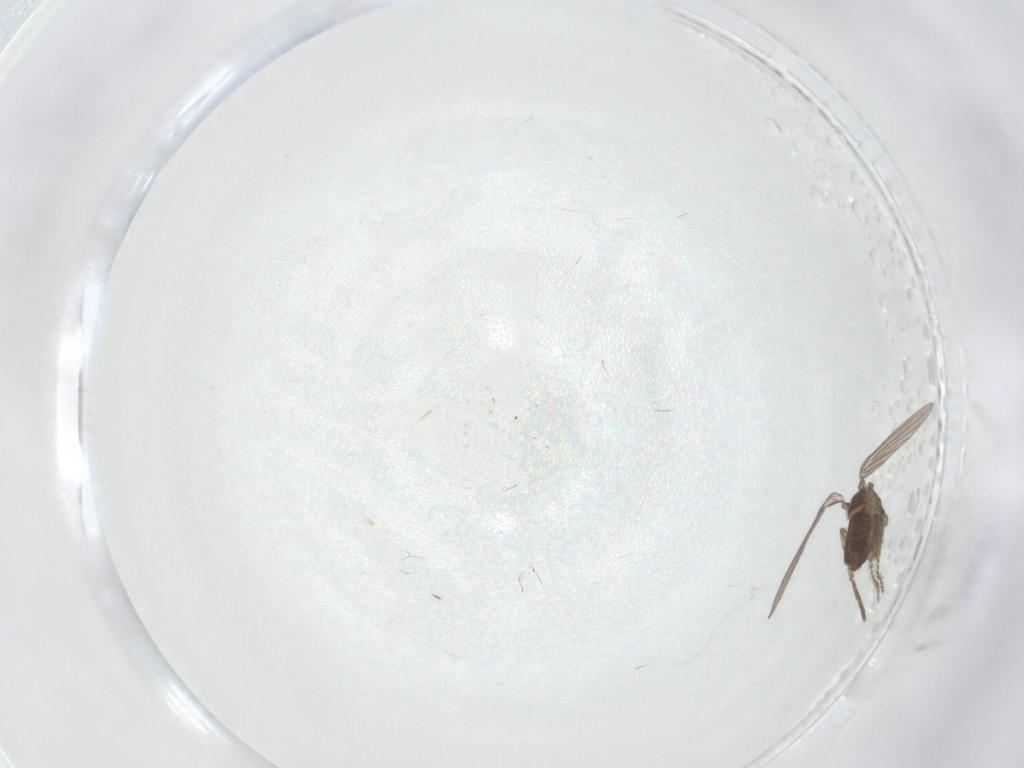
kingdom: Animalia
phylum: Arthropoda
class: Insecta
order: Diptera
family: Chironomidae
